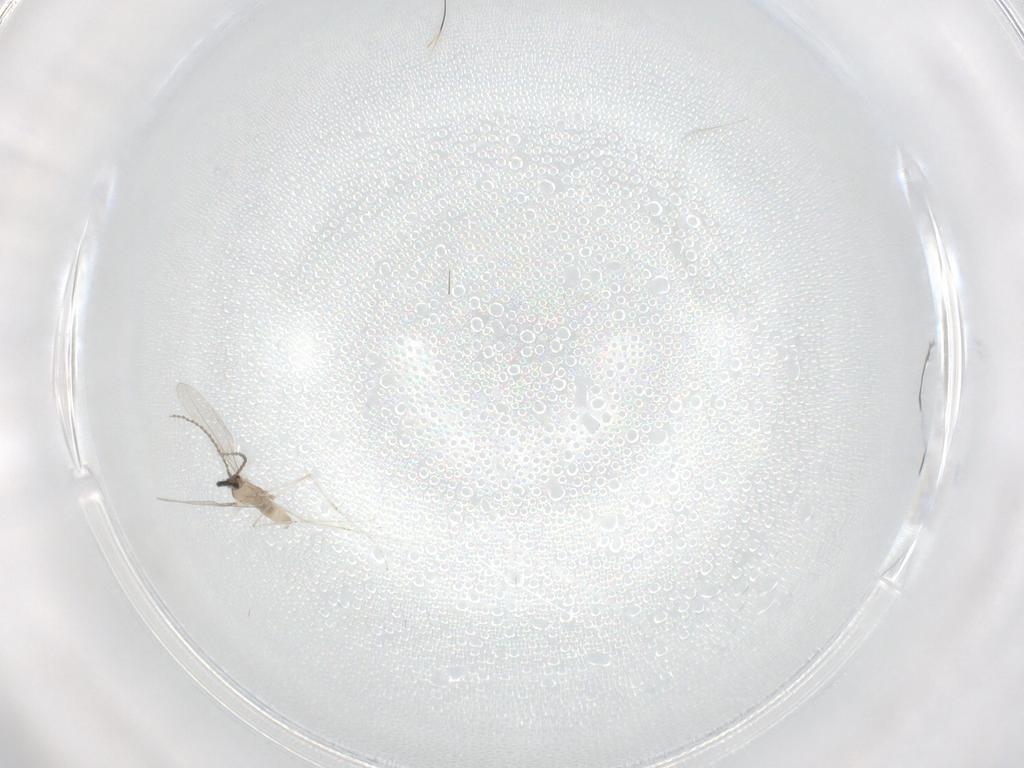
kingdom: Animalia
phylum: Arthropoda
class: Insecta
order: Diptera
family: Cecidomyiidae
